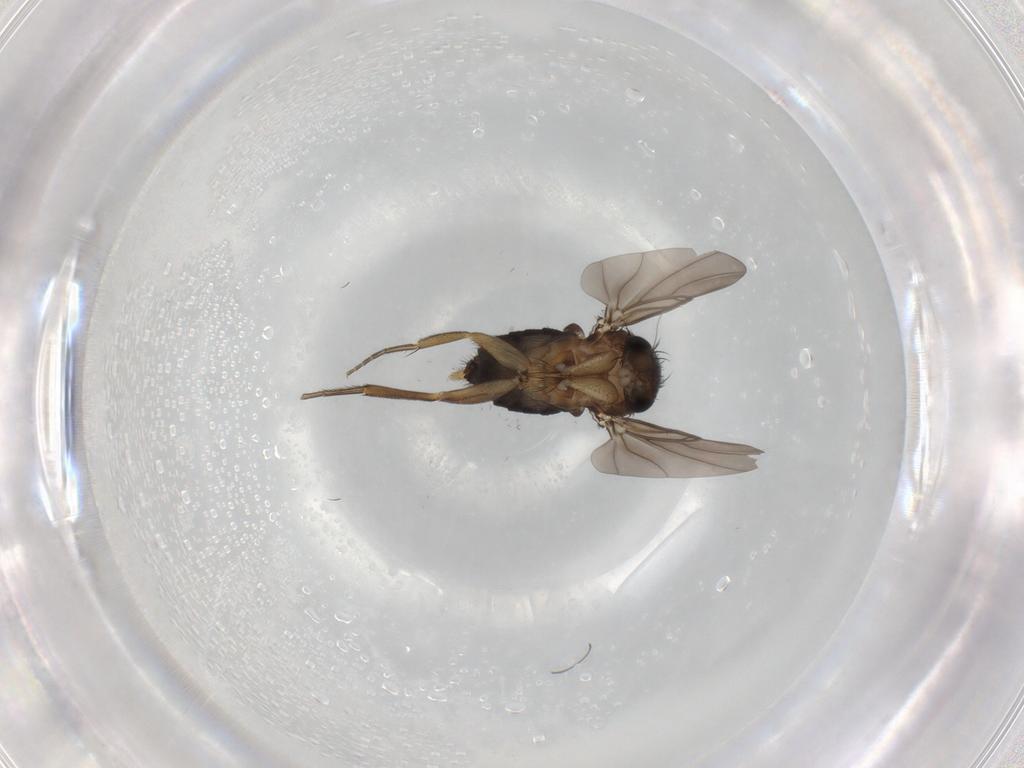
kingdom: Animalia
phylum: Arthropoda
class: Insecta
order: Diptera
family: Phoridae
